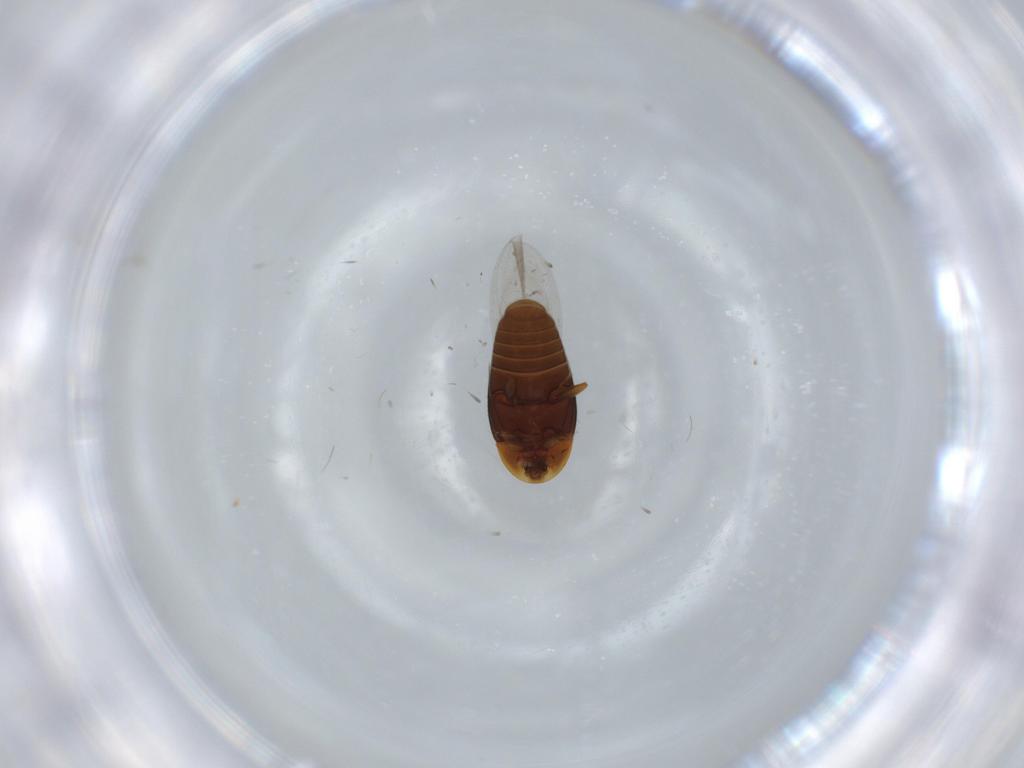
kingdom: Animalia
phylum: Arthropoda
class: Insecta
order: Coleoptera
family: Corylophidae
